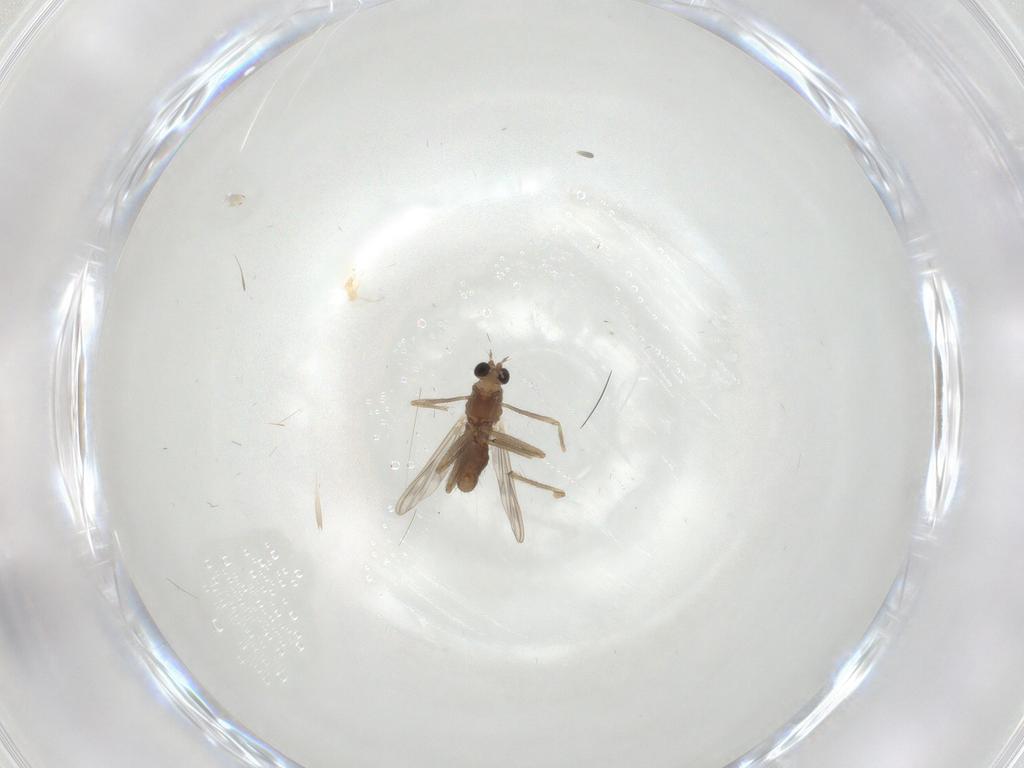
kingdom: Animalia
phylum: Arthropoda
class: Insecta
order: Diptera
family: Chironomidae
